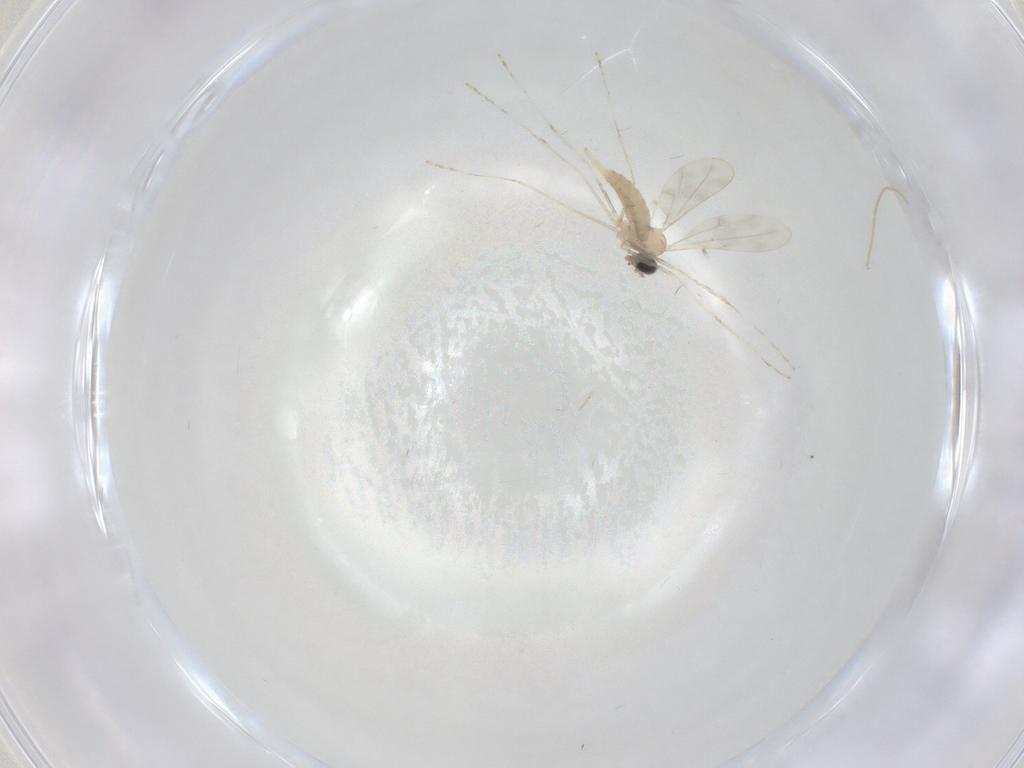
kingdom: Animalia
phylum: Arthropoda
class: Insecta
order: Diptera
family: Cecidomyiidae
